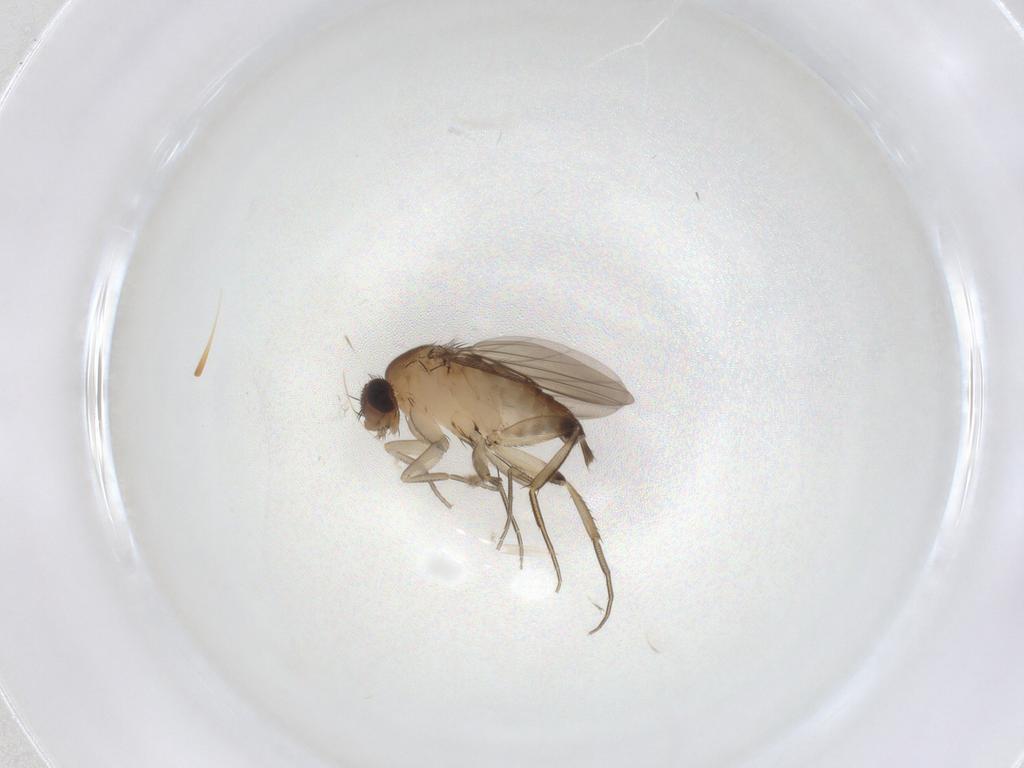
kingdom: Animalia
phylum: Arthropoda
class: Insecta
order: Diptera
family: Phoridae
